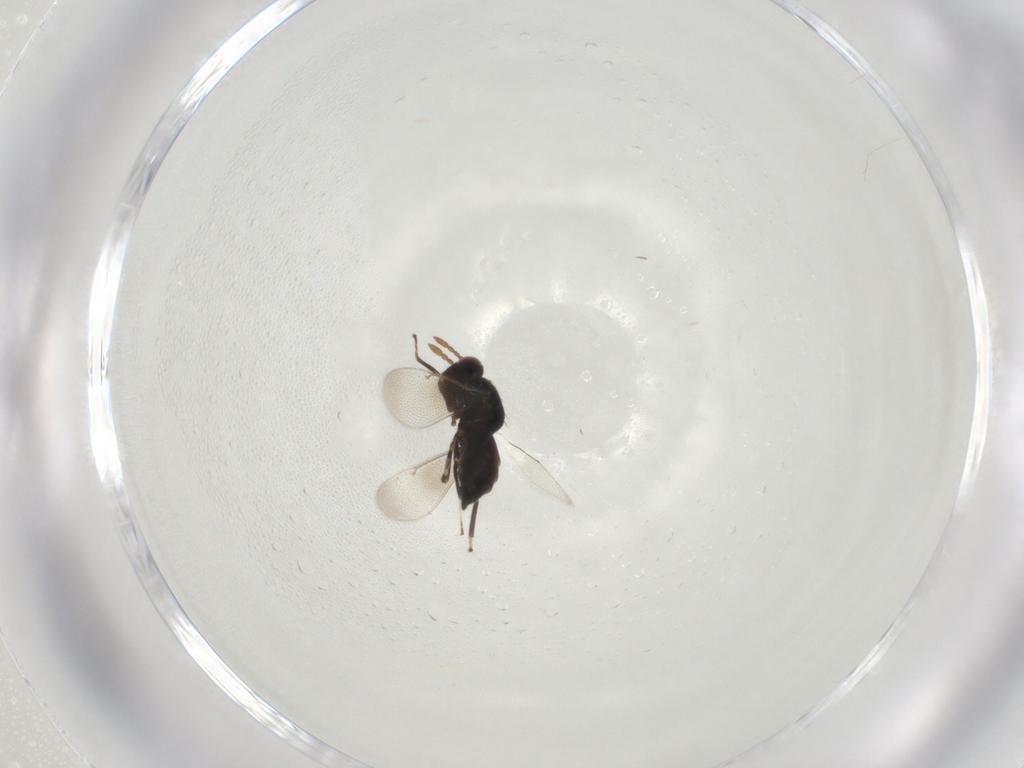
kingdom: Animalia
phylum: Arthropoda
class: Insecta
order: Hymenoptera
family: Eulophidae
